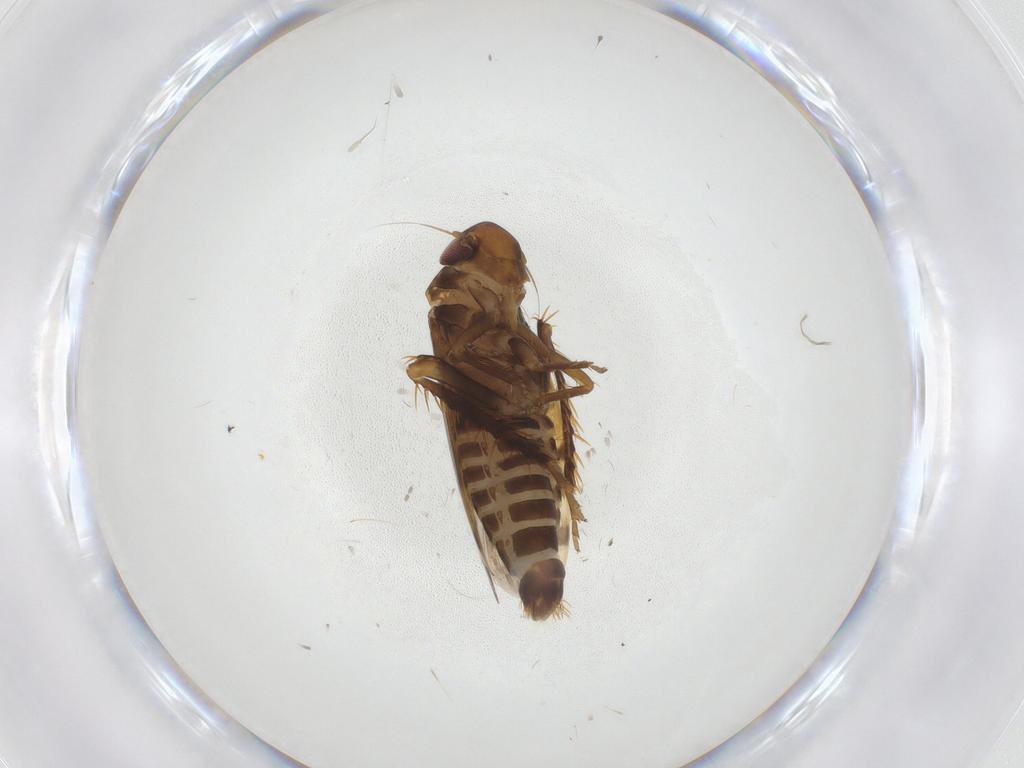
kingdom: Animalia
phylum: Arthropoda
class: Insecta
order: Hemiptera
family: Cicadellidae
